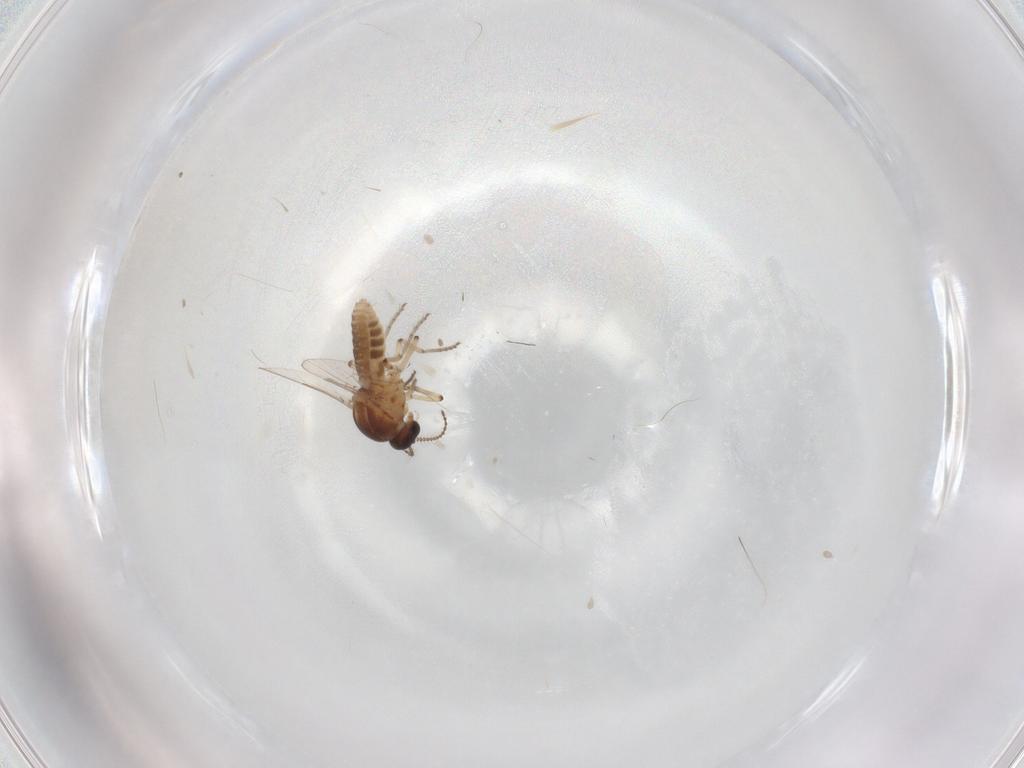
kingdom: Animalia
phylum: Arthropoda
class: Insecta
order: Diptera
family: Ceratopogonidae
